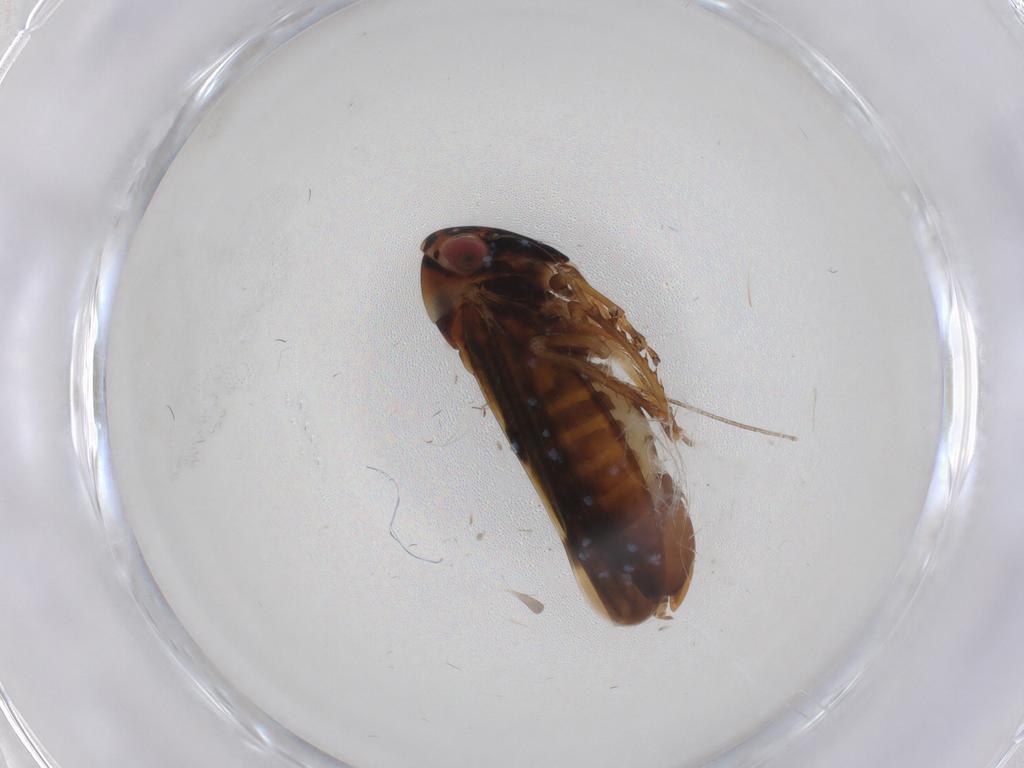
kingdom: Animalia
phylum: Arthropoda
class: Insecta
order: Hemiptera
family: Cicadellidae
